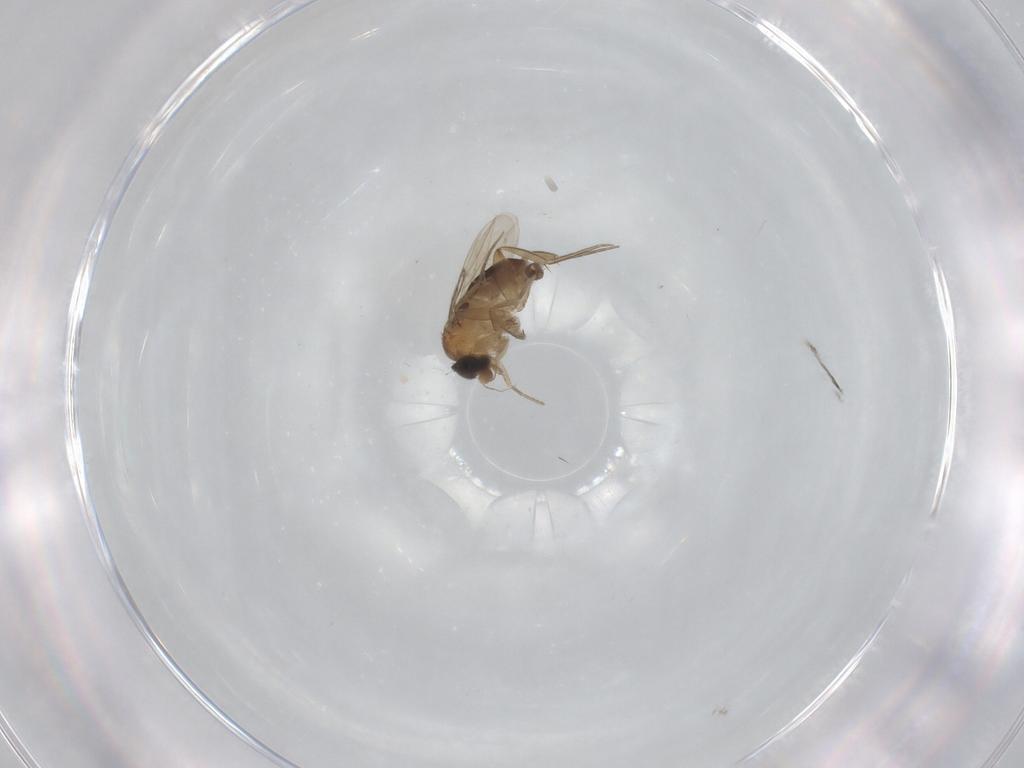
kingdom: Animalia
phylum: Arthropoda
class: Insecta
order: Diptera
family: Chironomidae
